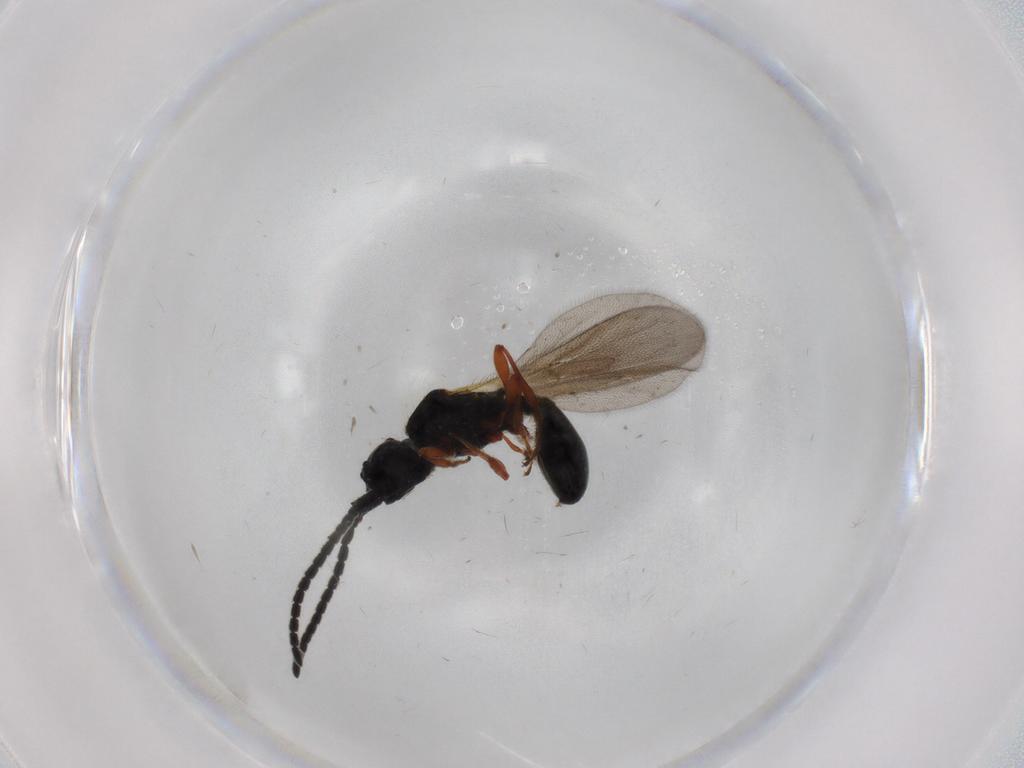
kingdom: Animalia
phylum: Arthropoda
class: Insecta
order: Hymenoptera
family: Diapriidae
